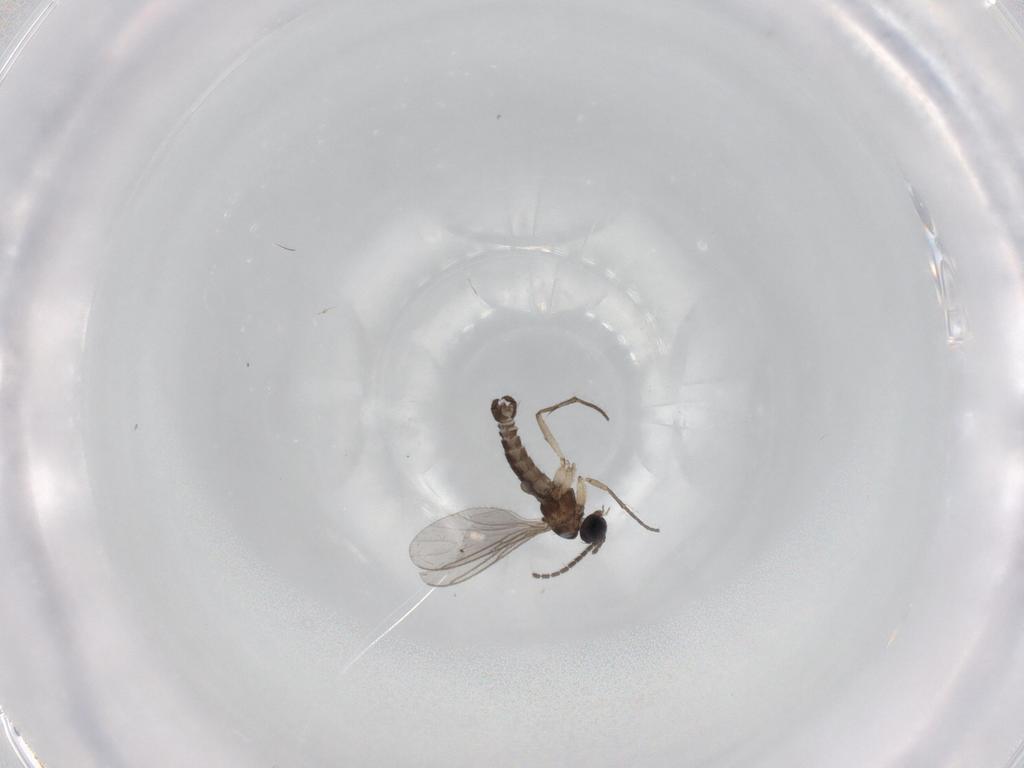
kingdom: Animalia
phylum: Arthropoda
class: Insecta
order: Diptera
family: Sciaridae
